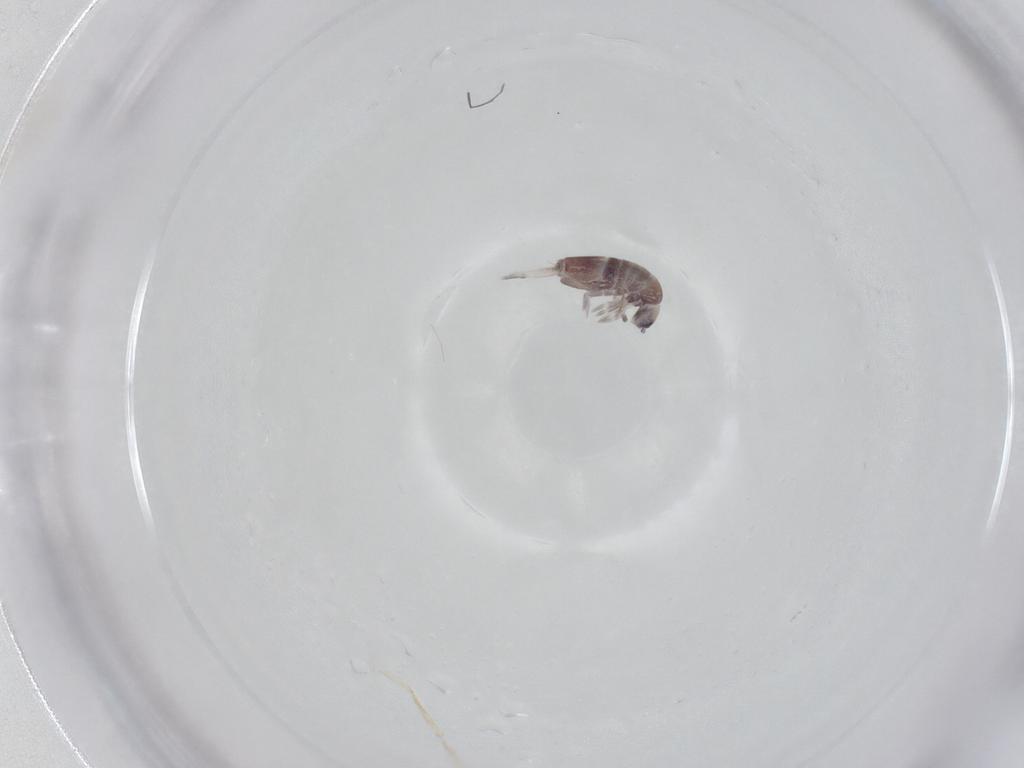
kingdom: Animalia
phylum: Arthropoda
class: Collembola
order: Entomobryomorpha
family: Entomobryidae
